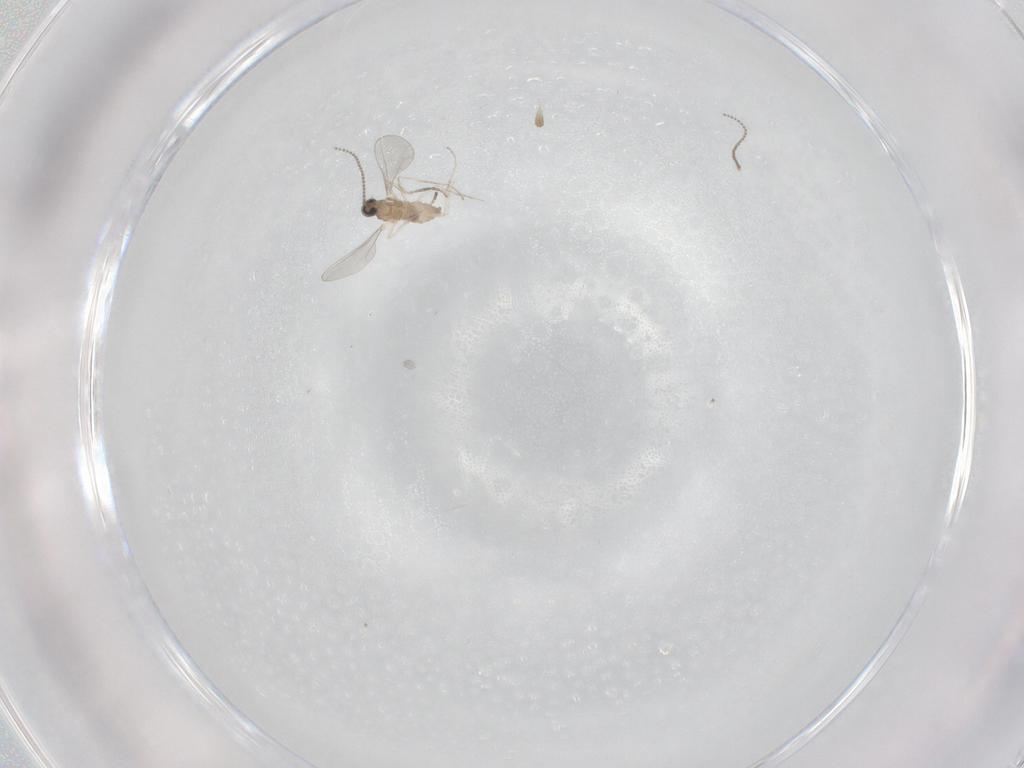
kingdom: Animalia
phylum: Arthropoda
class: Insecta
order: Diptera
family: Cecidomyiidae
